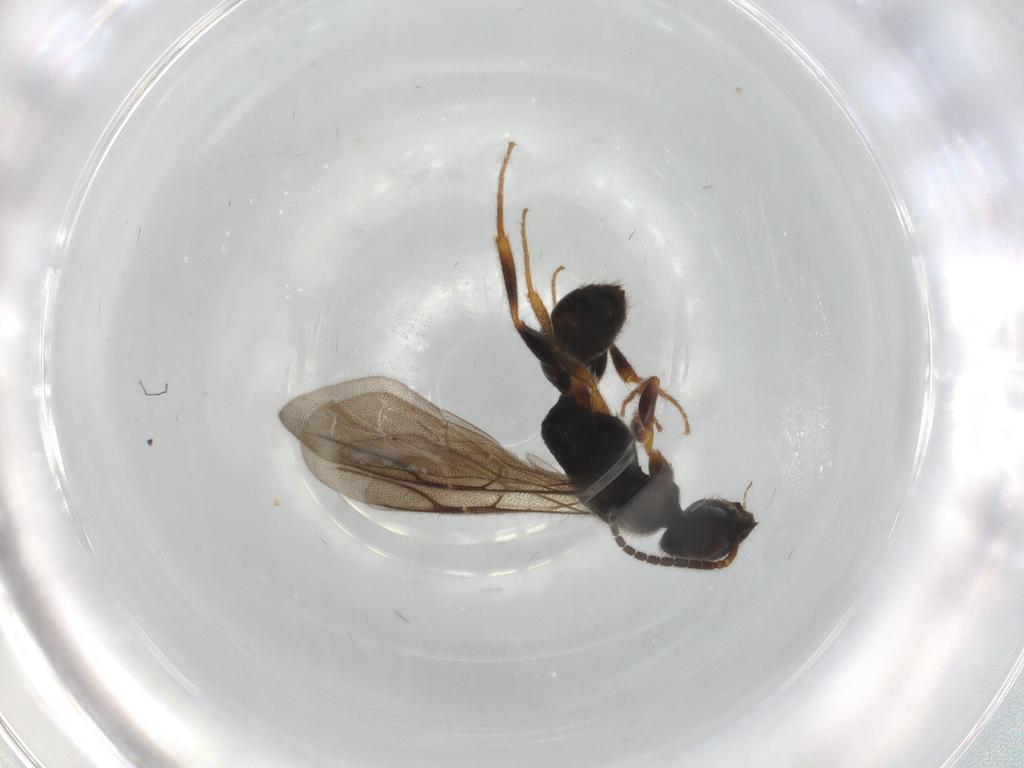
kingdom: Animalia
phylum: Arthropoda
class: Insecta
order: Hymenoptera
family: Bethylidae
